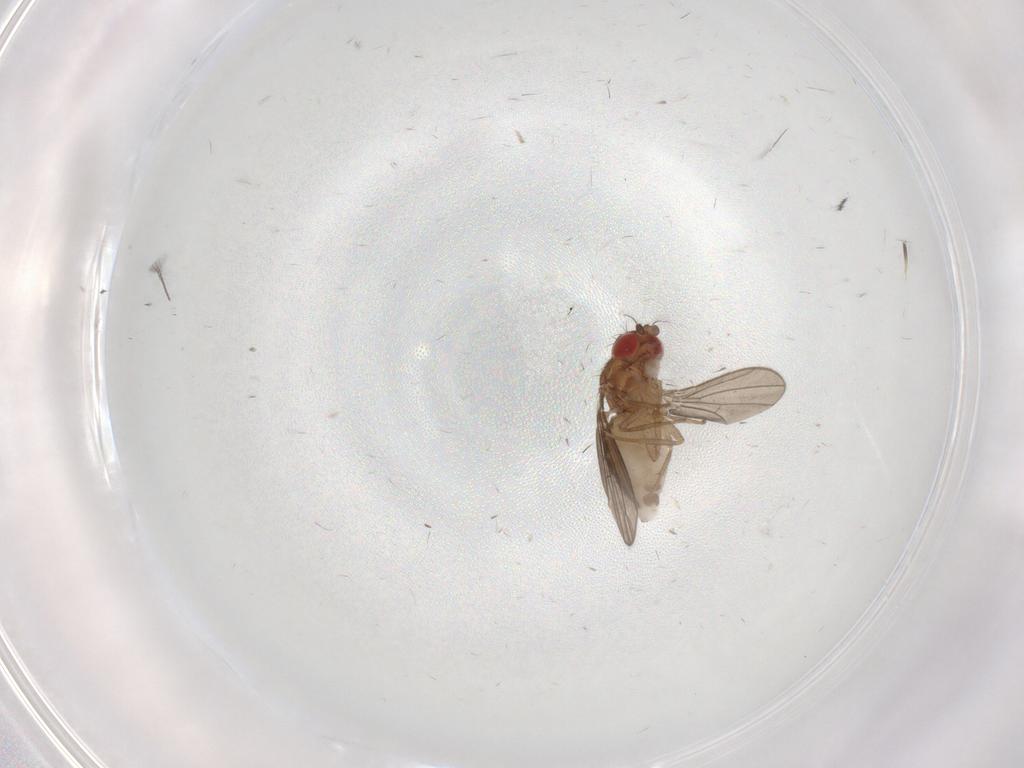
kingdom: Animalia
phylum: Arthropoda
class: Insecta
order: Diptera
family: Drosophilidae
